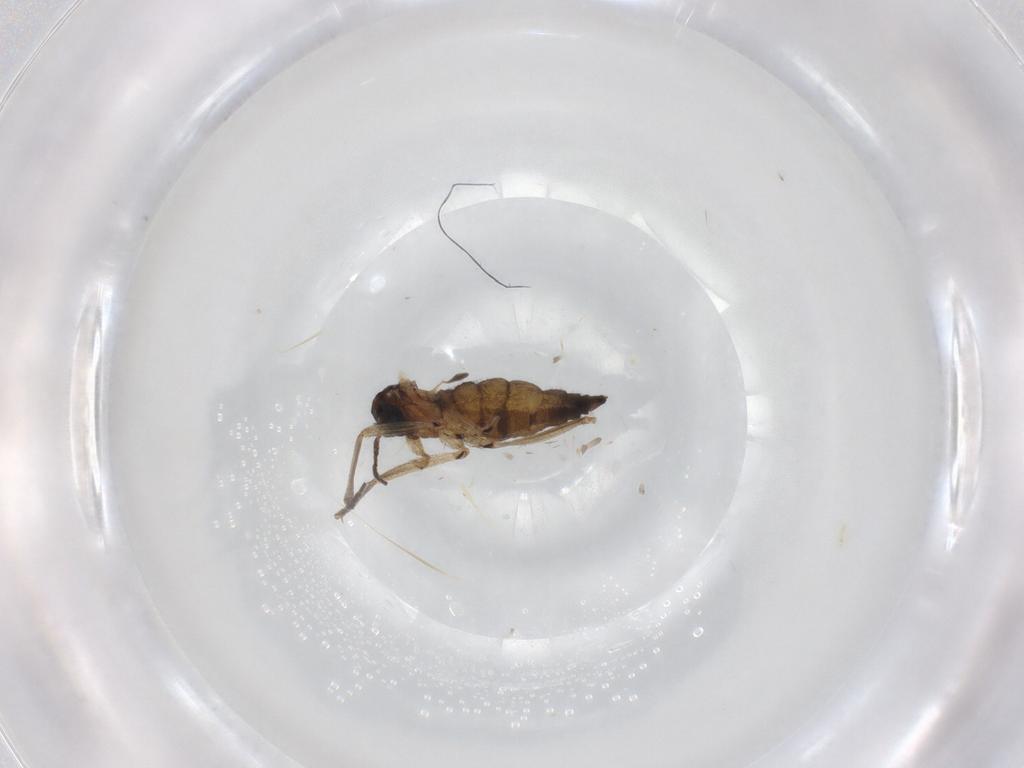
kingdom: Animalia
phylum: Arthropoda
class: Insecta
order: Diptera
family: Sciaridae
